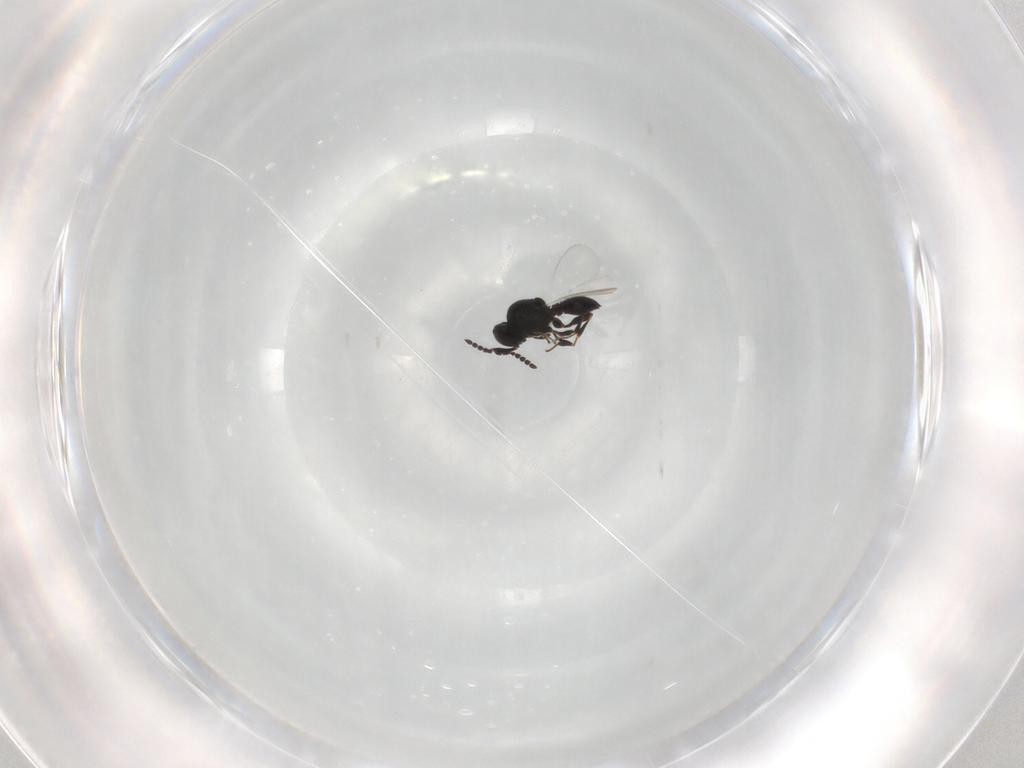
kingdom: Animalia
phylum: Arthropoda
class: Insecta
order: Hymenoptera
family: Platygastridae
